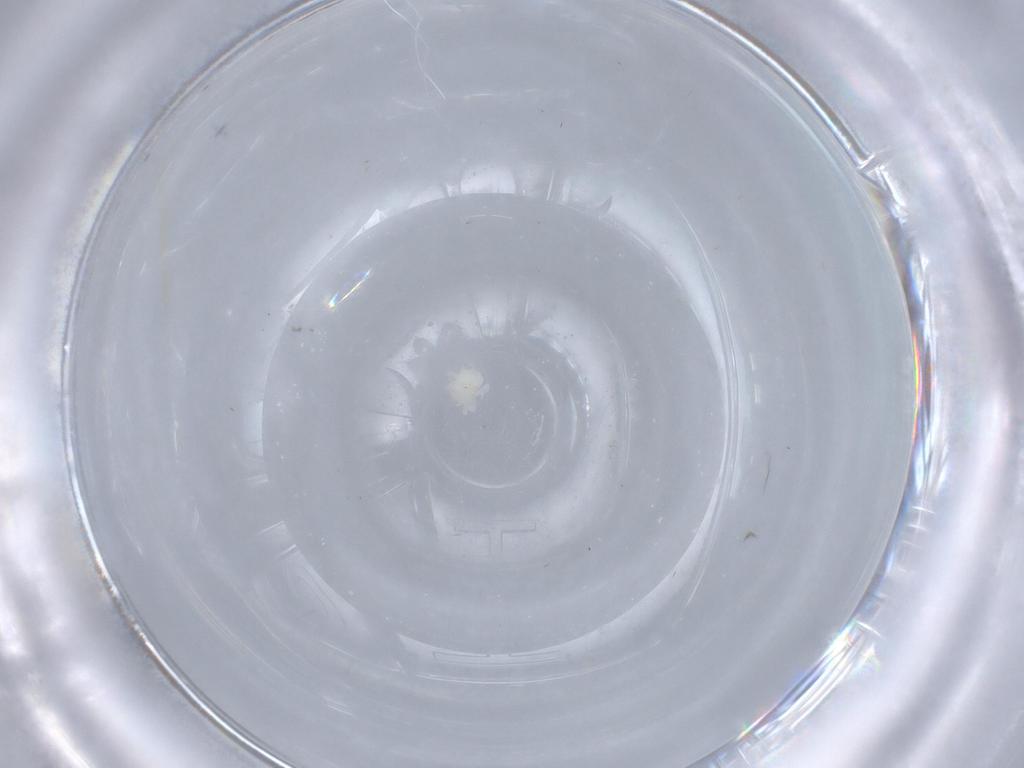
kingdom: Animalia
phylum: Arthropoda
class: Arachnida
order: Trombidiformes
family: Anystidae
